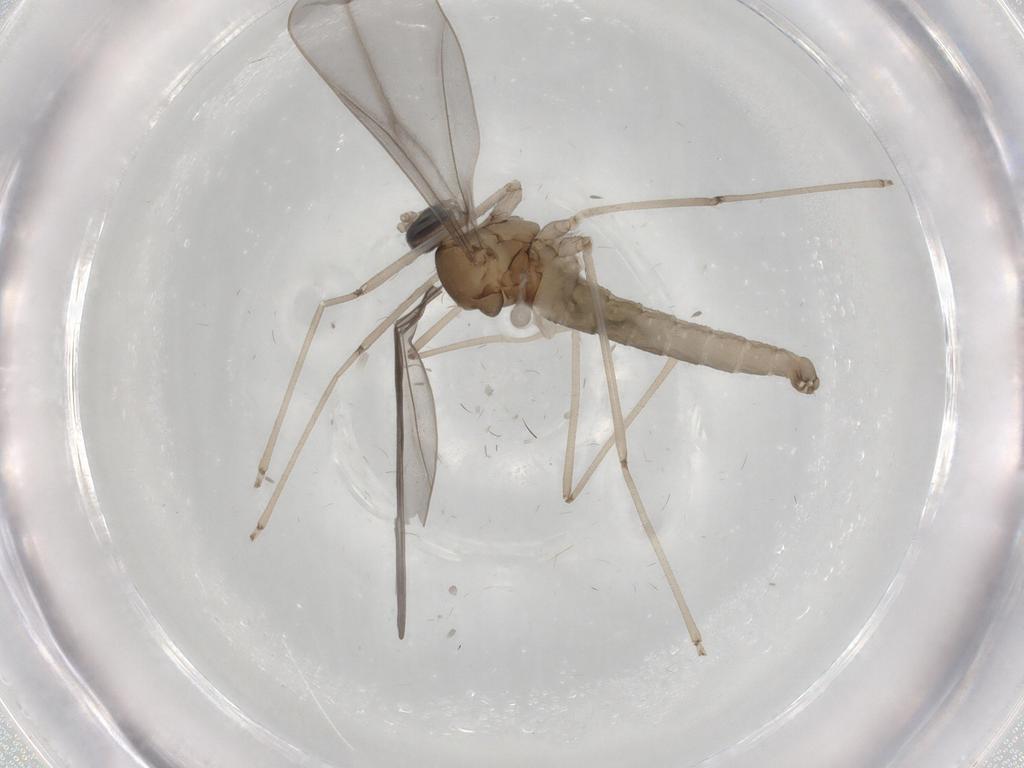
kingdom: Animalia
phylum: Arthropoda
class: Insecta
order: Diptera
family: Cecidomyiidae
